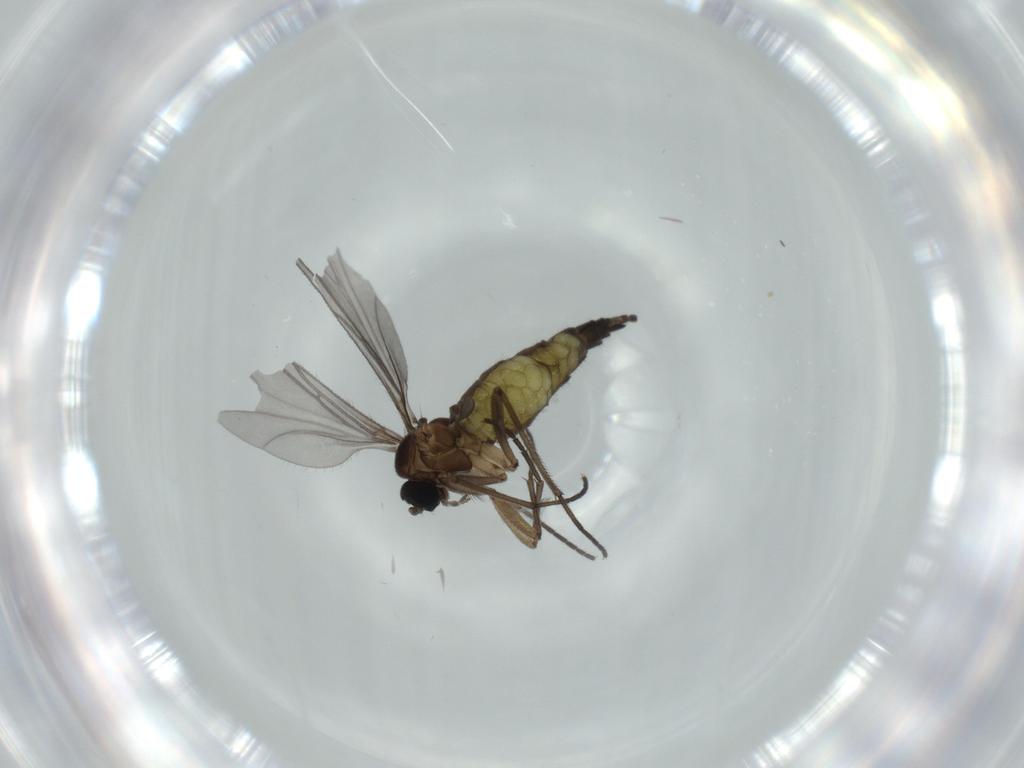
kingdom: Animalia
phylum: Arthropoda
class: Insecta
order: Diptera
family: Sciaridae
